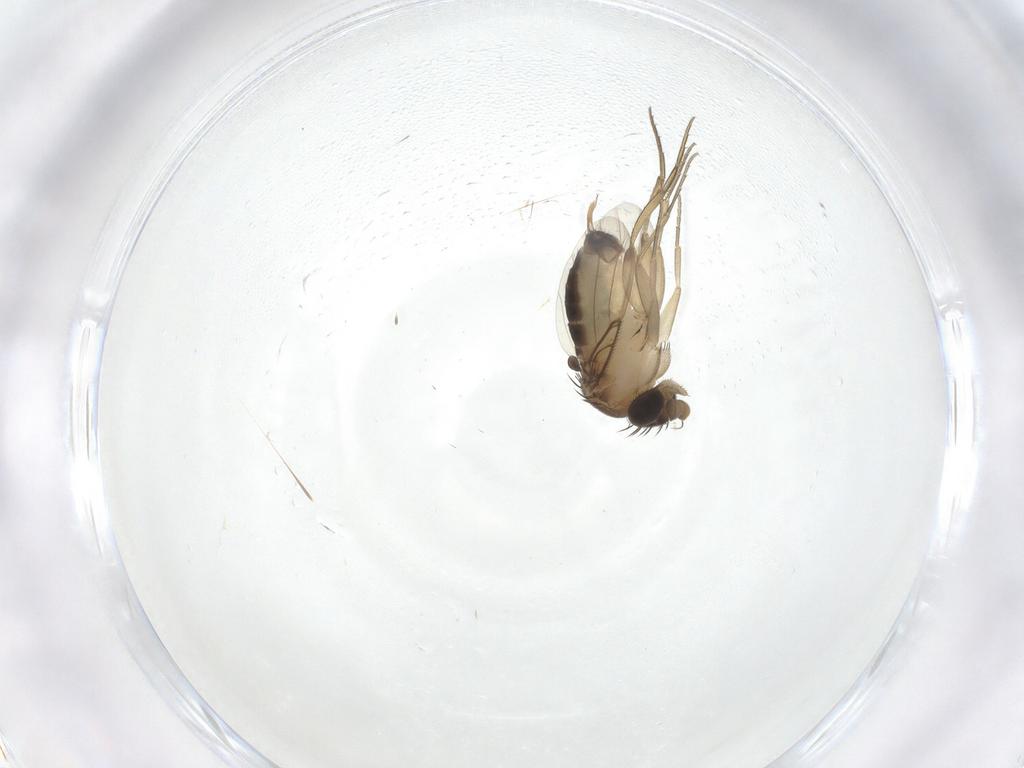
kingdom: Animalia
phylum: Arthropoda
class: Insecta
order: Diptera
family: Phoridae
